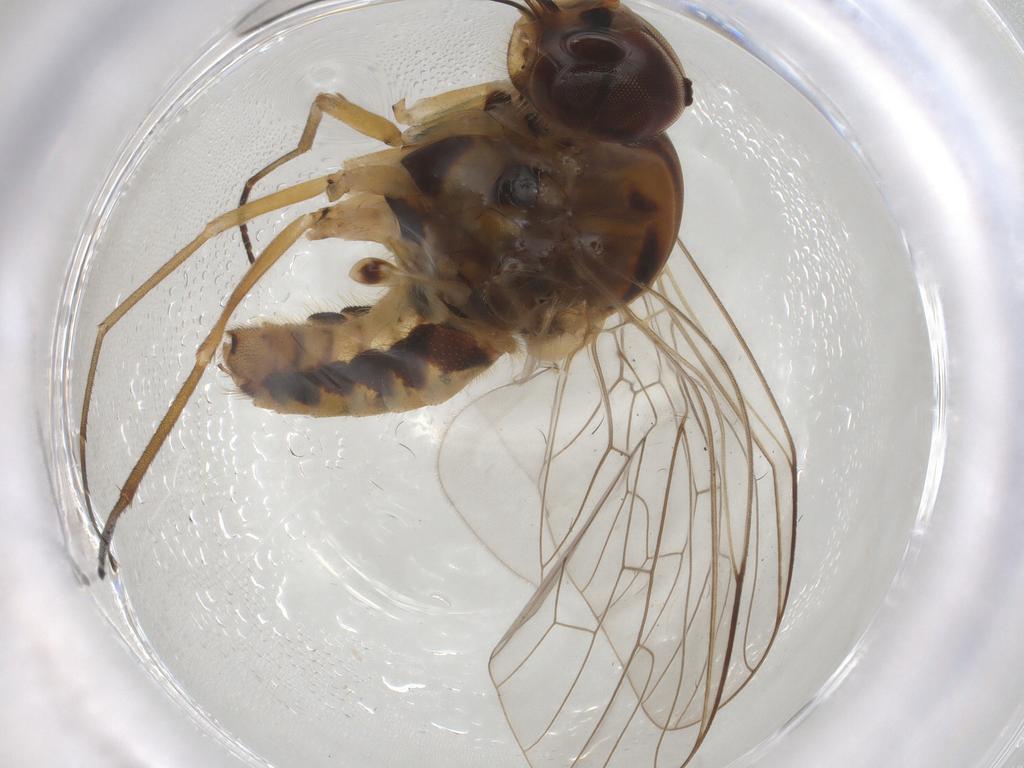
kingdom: Animalia
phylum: Arthropoda
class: Insecta
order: Diptera
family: Bombyliidae
